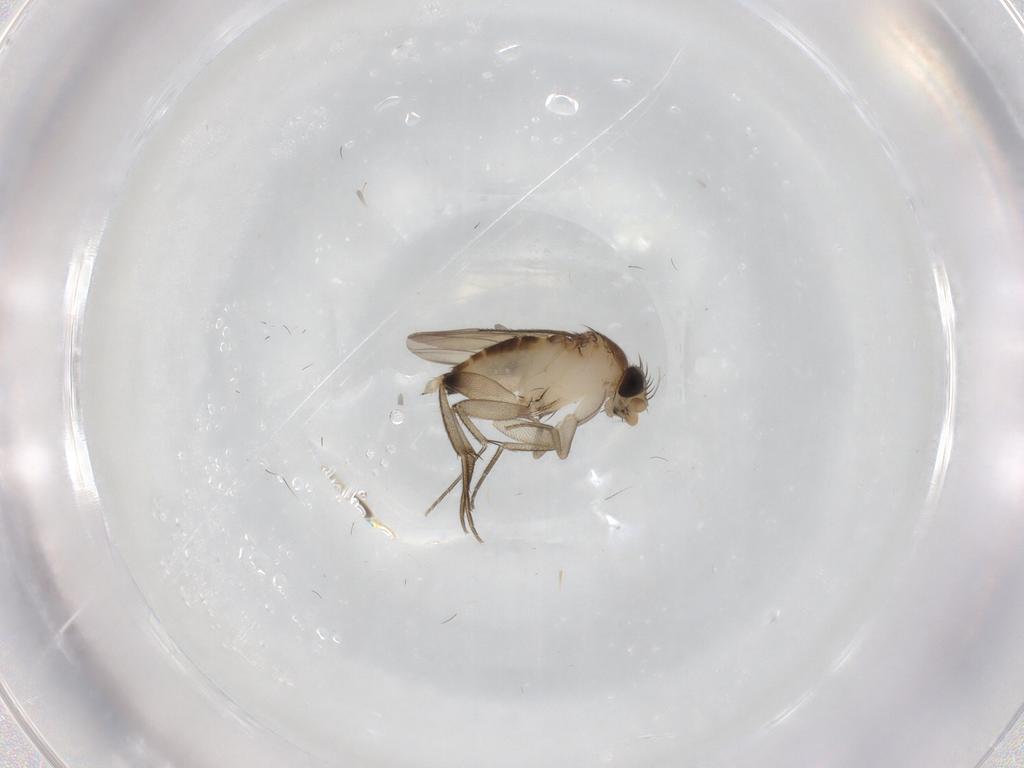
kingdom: Animalia
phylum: Arthropoda
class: Insecta
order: Diptera
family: Phoridae
